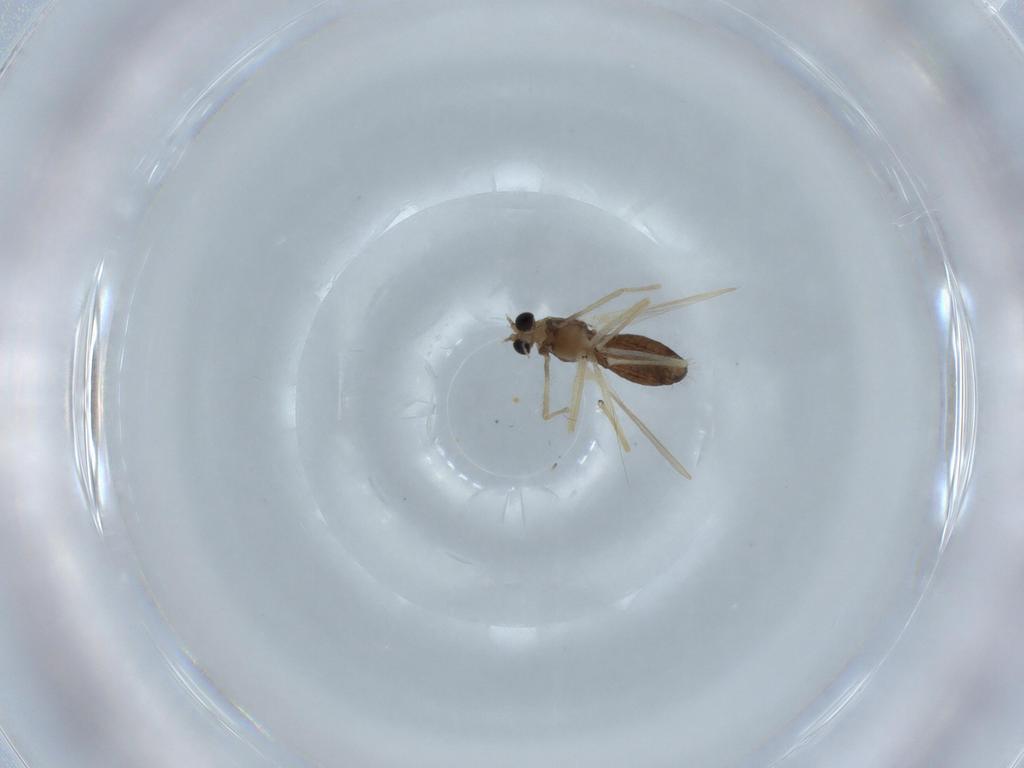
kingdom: Animalia
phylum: Arthropoda
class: Insecta
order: Diptera
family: Chironomidae
